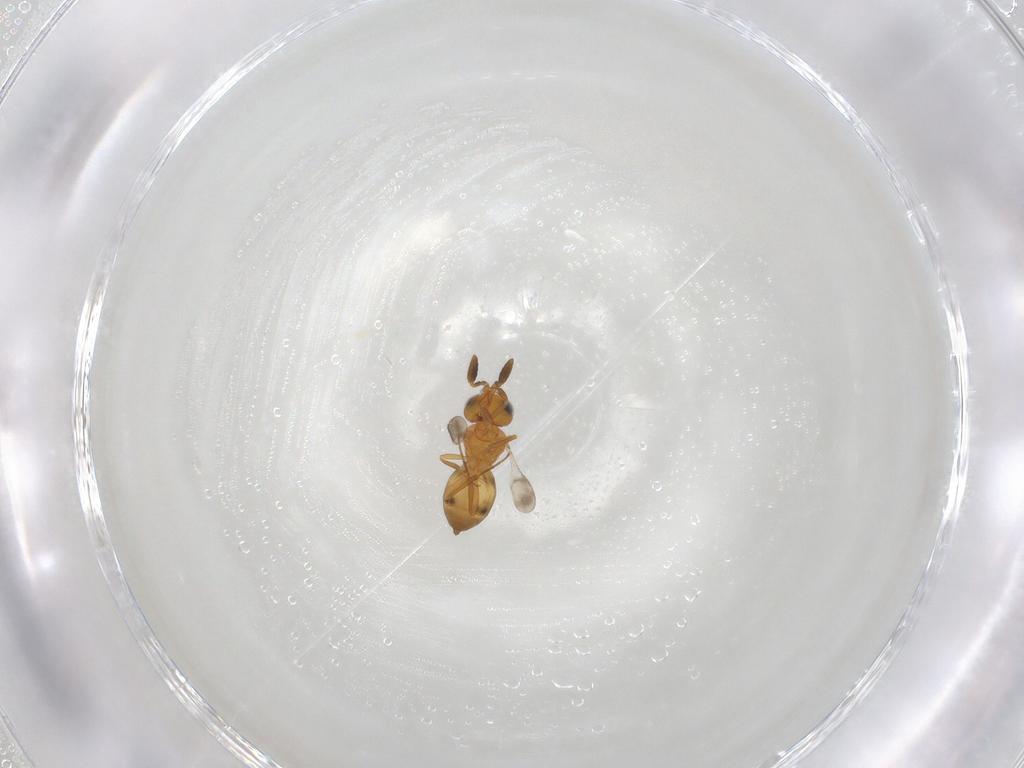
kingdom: Animalia
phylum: Arthropoda
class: Insecta
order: Hymenoptera
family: Scelionidae
